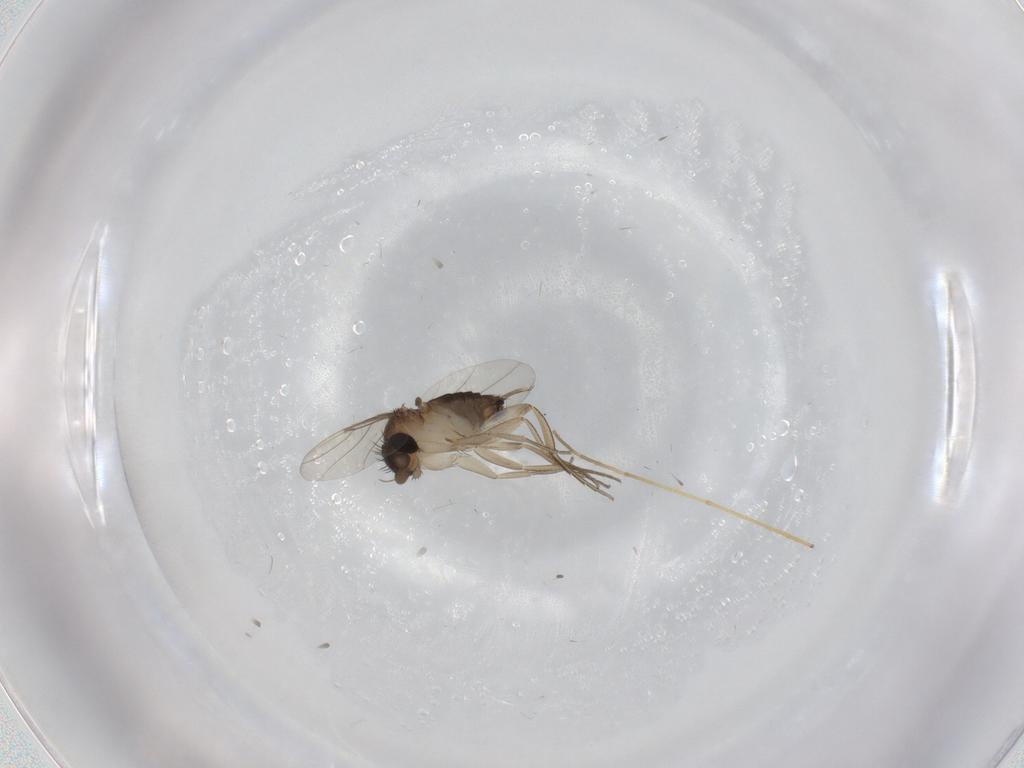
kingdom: Animalia
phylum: Arthropoda
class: Insecta
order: Diptera
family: Phoridae
